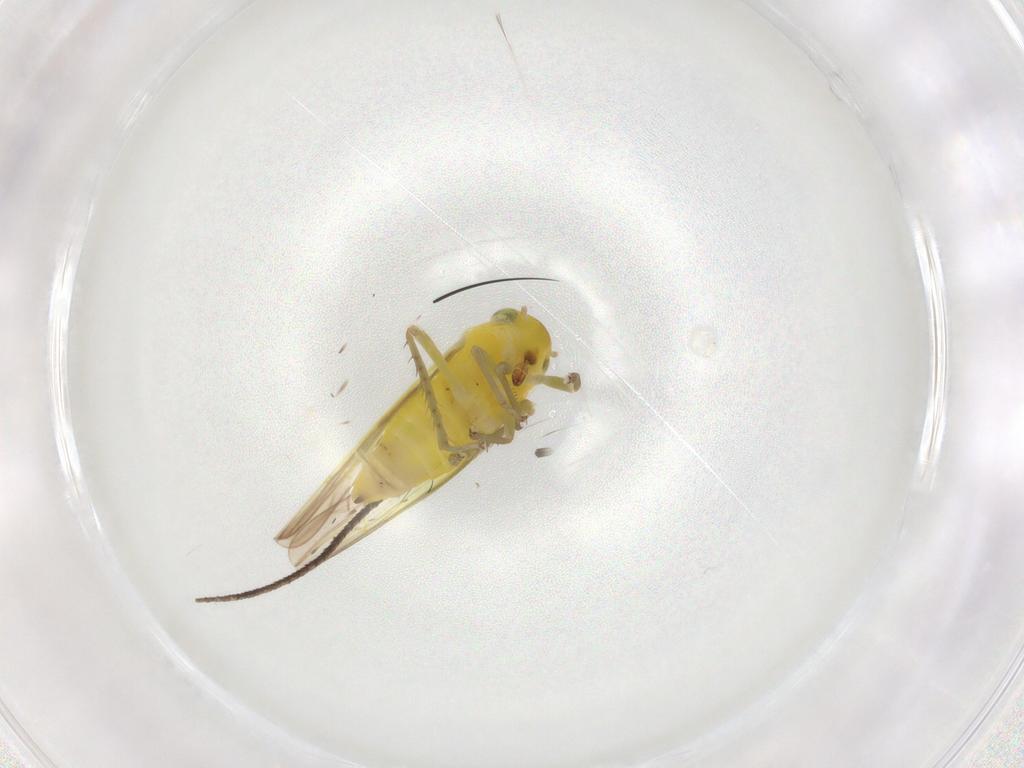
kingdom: Animalia
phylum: Arthropoda
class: Insecta
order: Hemiptera
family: Cicadellidae
